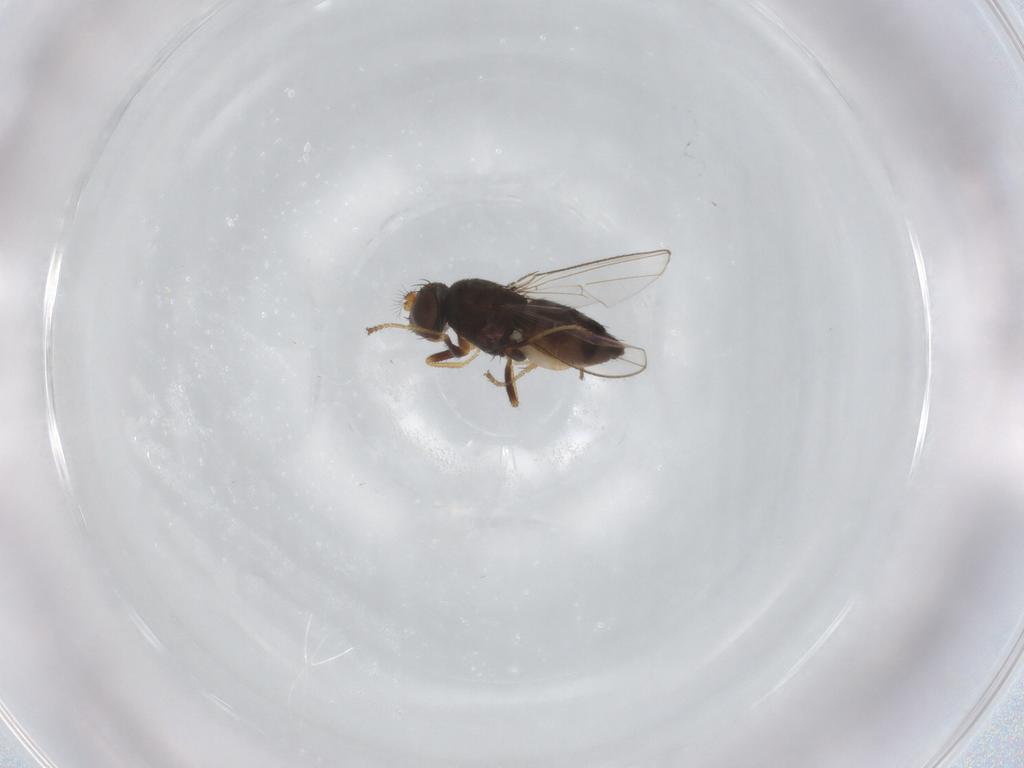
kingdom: Animalia
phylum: Arthropoda
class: Insecta
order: Diptera
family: Ephydridae
